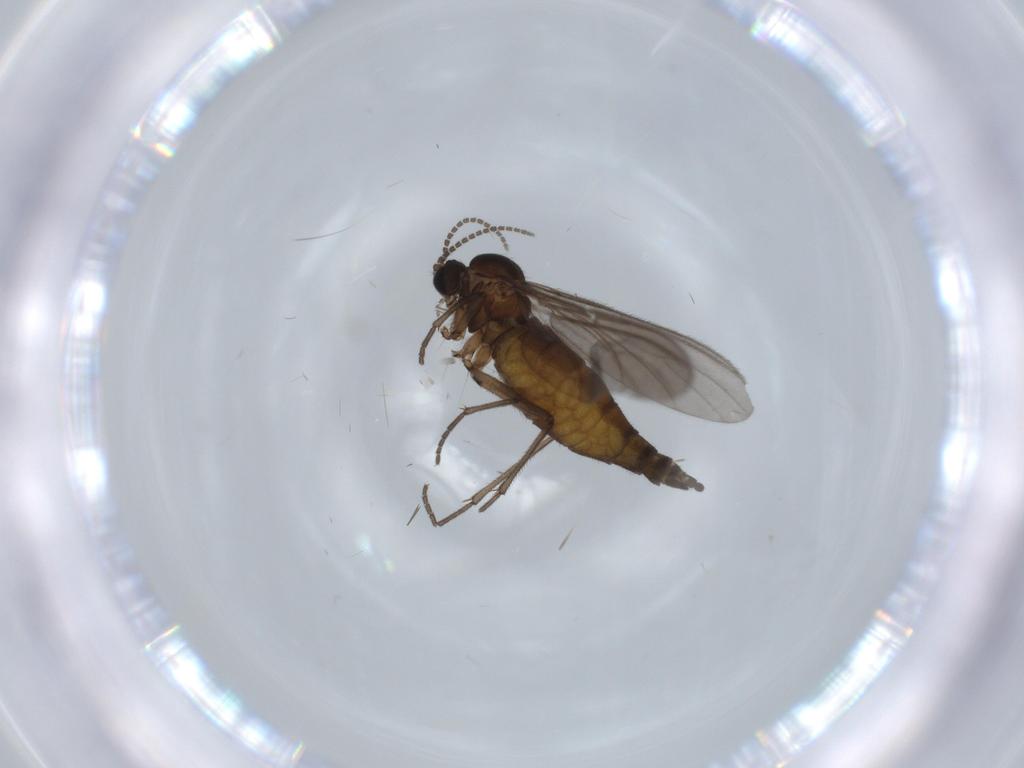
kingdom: Animalia
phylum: Arthropoda
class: Insecta
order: Diptera
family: Sciaridae
